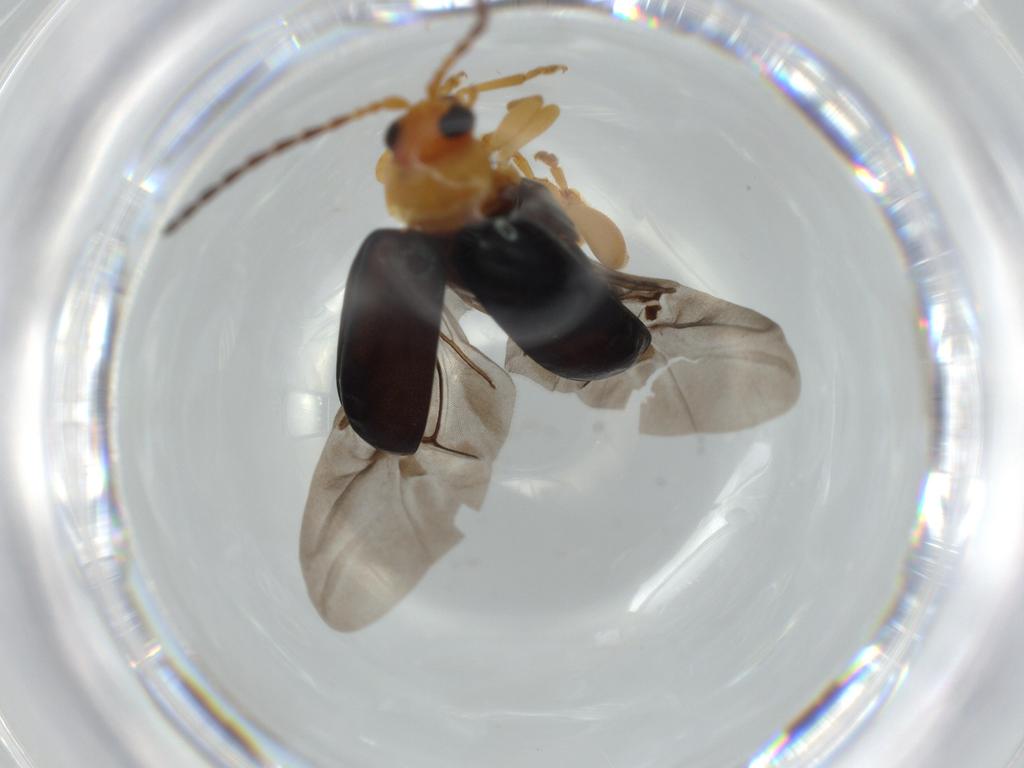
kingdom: Animalia
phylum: Arthropoda
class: Insecta
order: Coleoptera
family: Chrysomelidae
